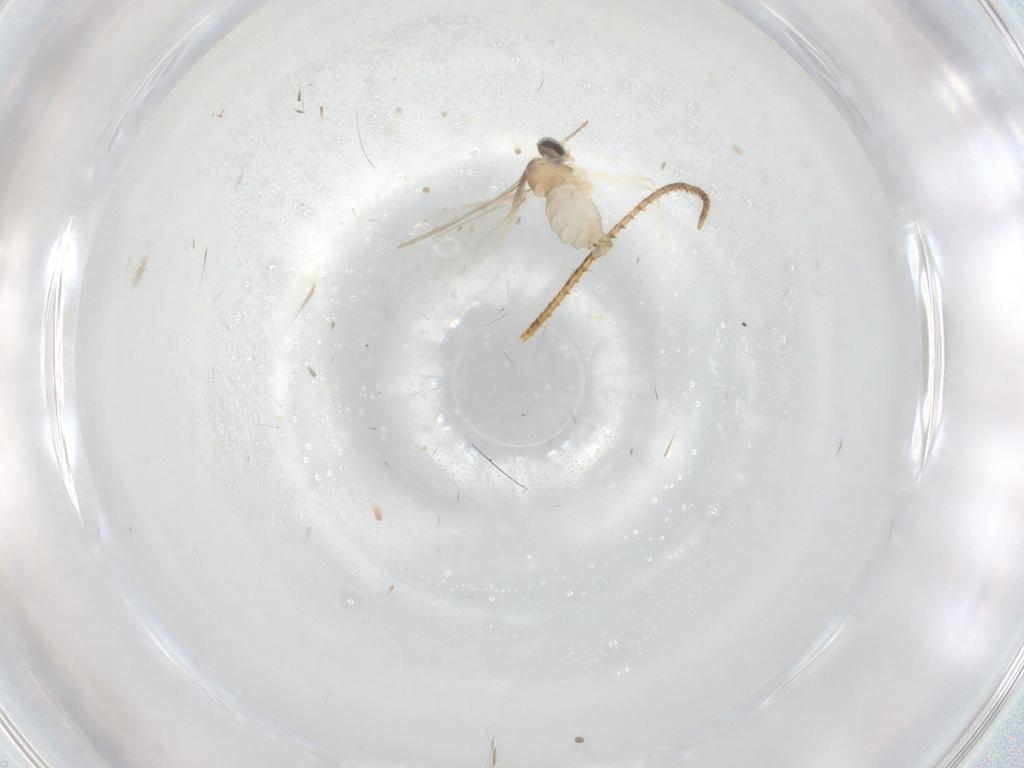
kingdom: Animalia
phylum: Arthropoda
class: Insecta
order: Diptera
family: Cecidomyiidae
